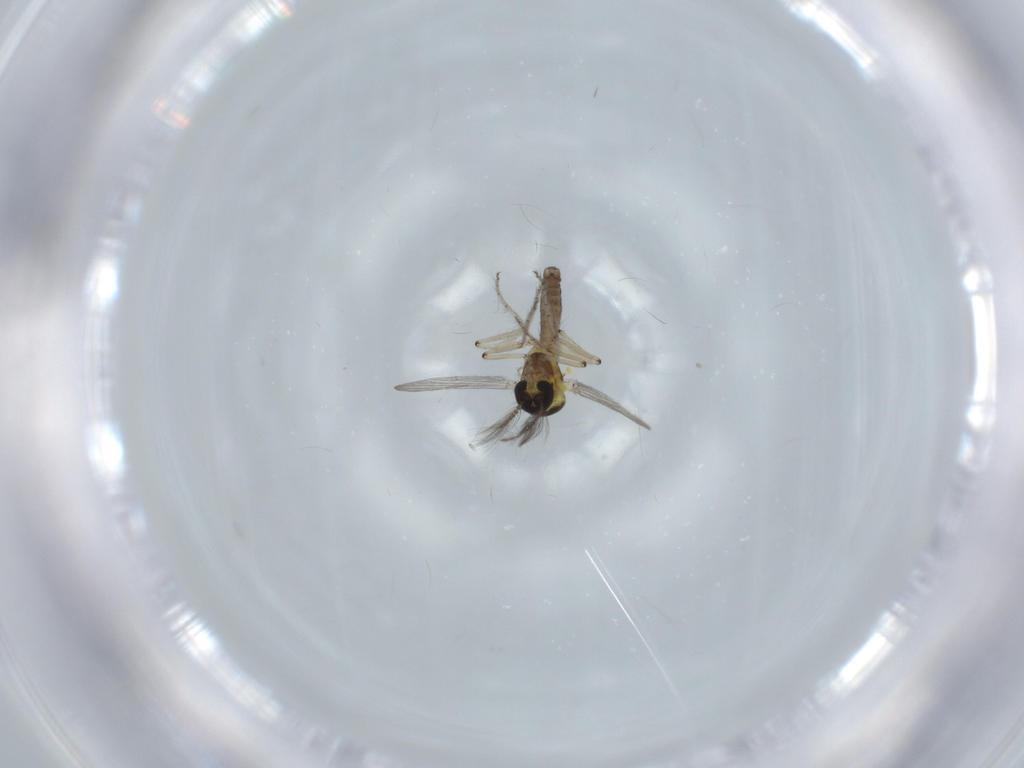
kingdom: Animalia
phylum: Arthropoda
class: Insecta
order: Diptera
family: Ceratopogonidae
